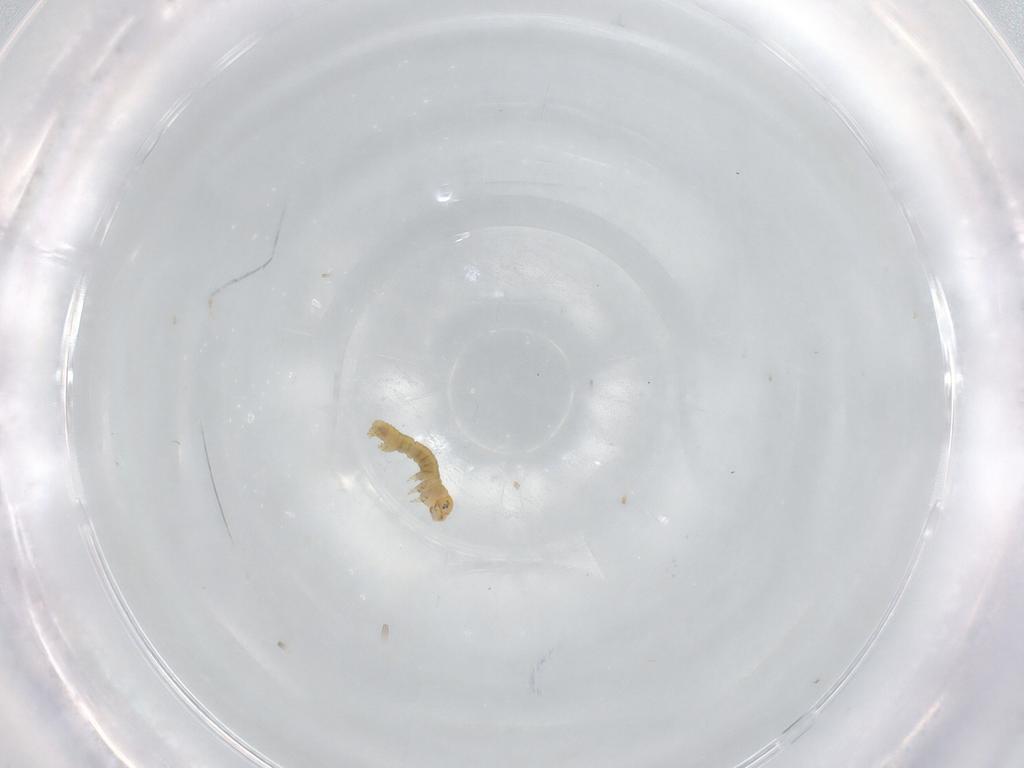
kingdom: Animalia
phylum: Arthropoda
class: Insecta
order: Lepidoptera
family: Geometridae
